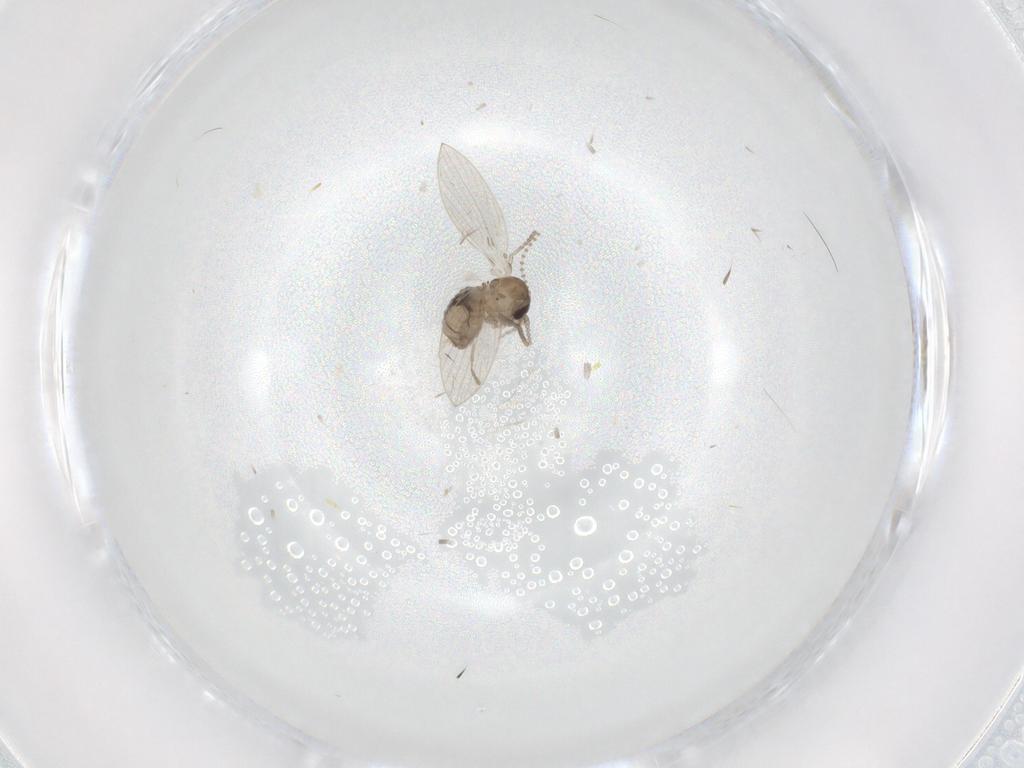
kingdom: Animalia
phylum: Arthropoda
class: Insecta
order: Diptera
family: Psychodidae
